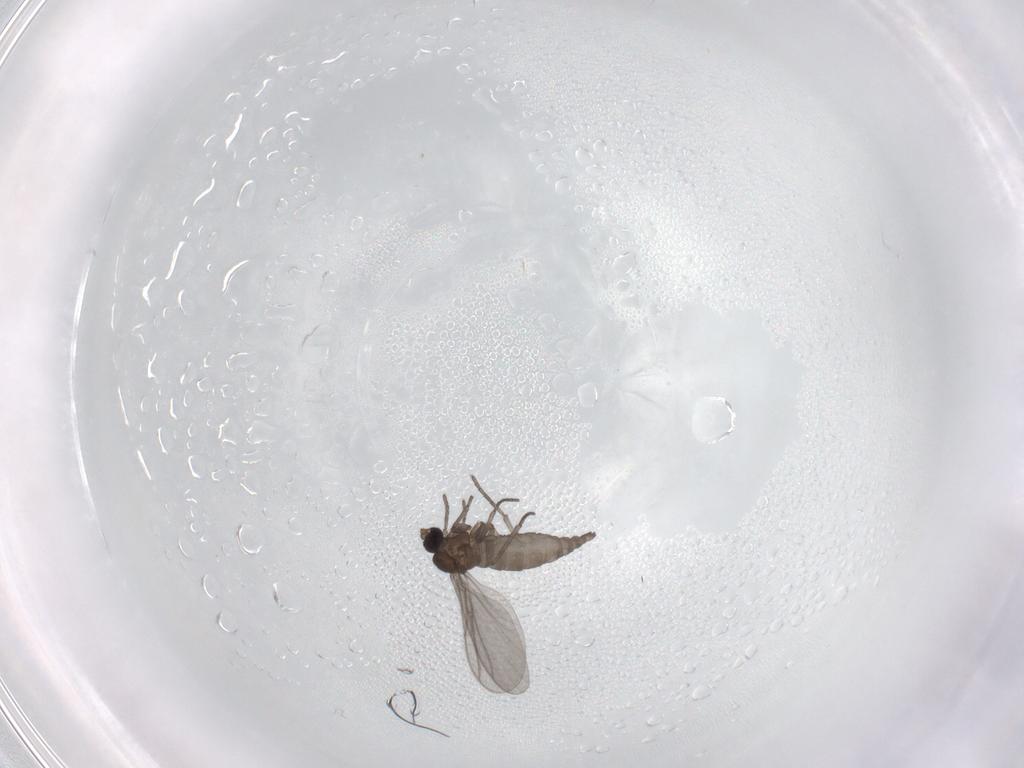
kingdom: Animalia
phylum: Arthropoda
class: Insecta
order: Diptera
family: Sciaridae
